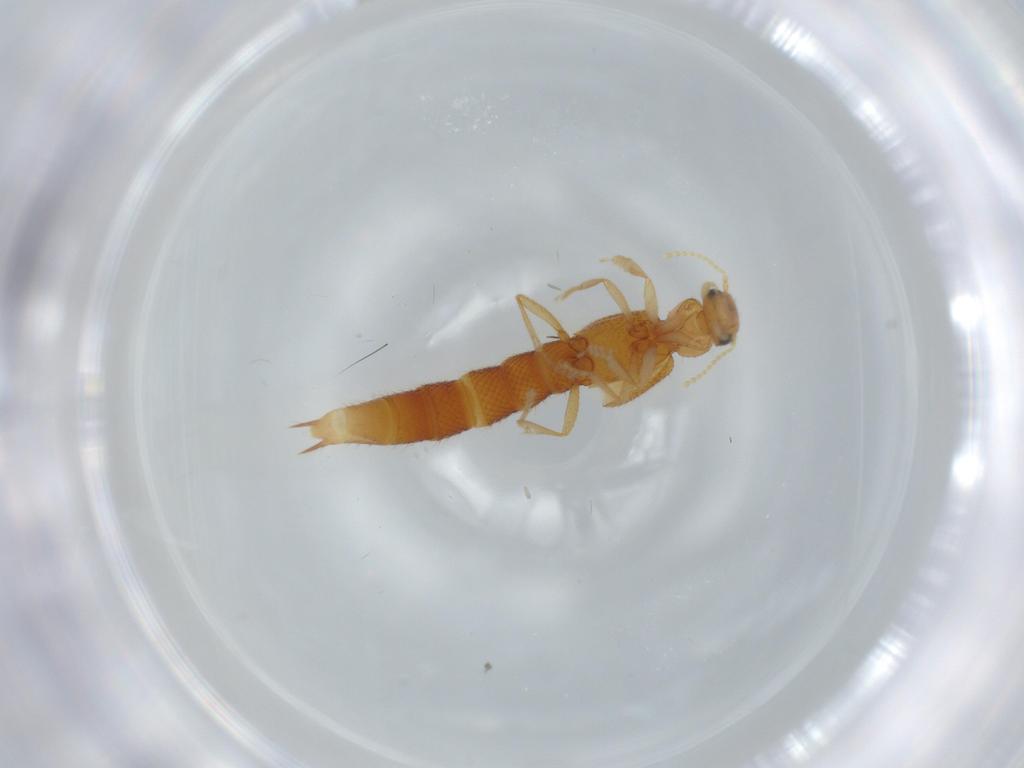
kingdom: Animalia
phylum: Arthropoda
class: Insecta
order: Coleoptera
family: Staphylinidae
